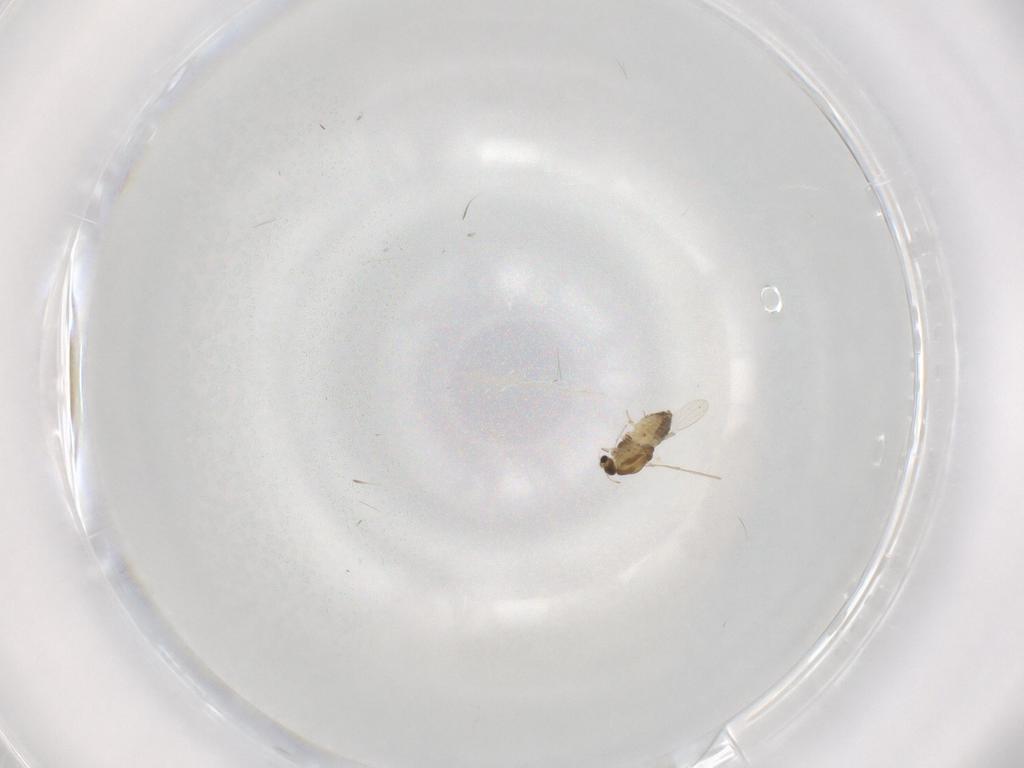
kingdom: Animalia
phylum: Arthropoda
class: Insecta
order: Diptera
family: Chironomidae
